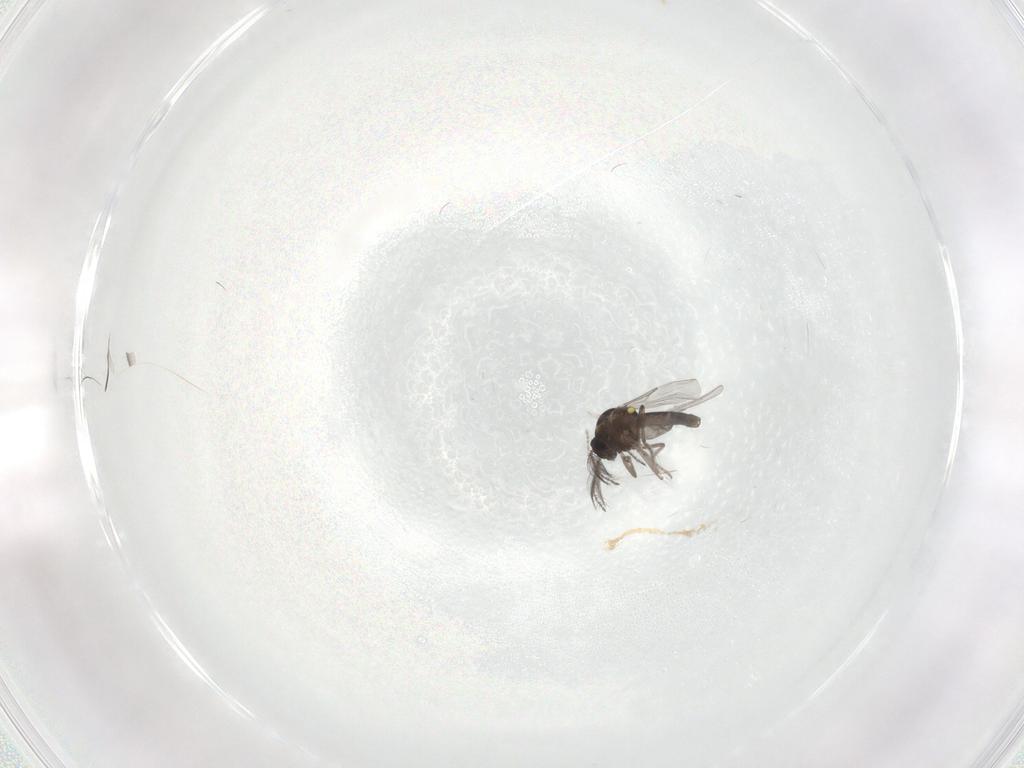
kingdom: Animalia
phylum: Arthropoda
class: Insecta
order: Diptera
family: Ceratopogonidae
